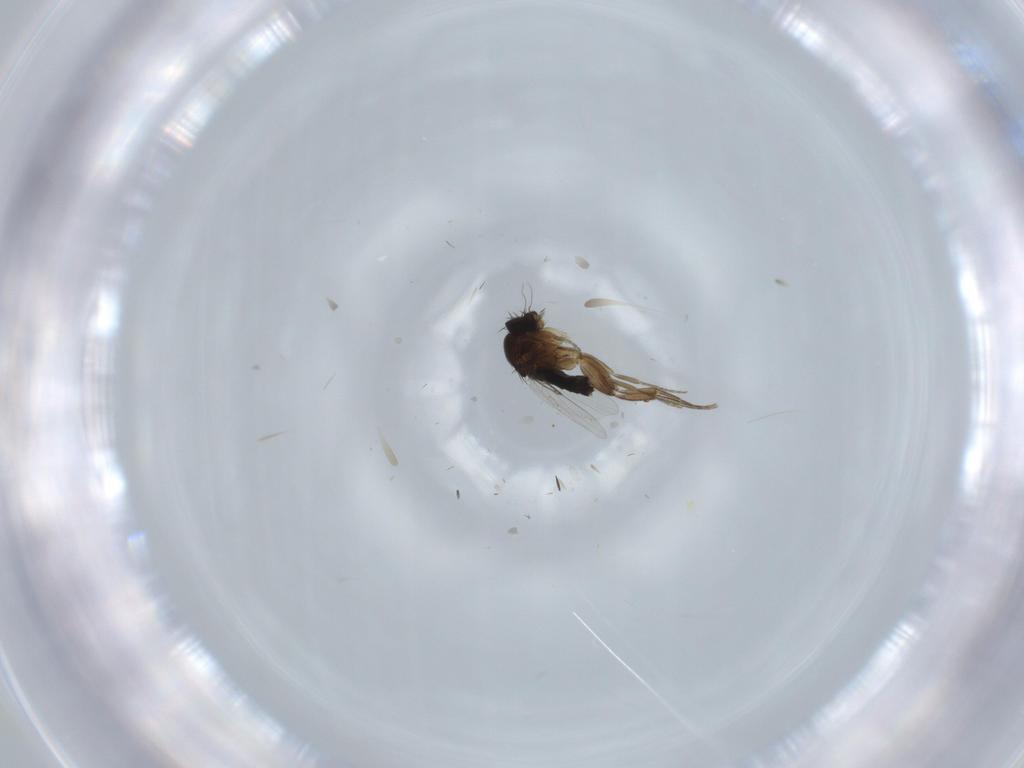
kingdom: Animalia
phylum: Arthropoda
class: Insecta
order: Diptera
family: Phoridae
